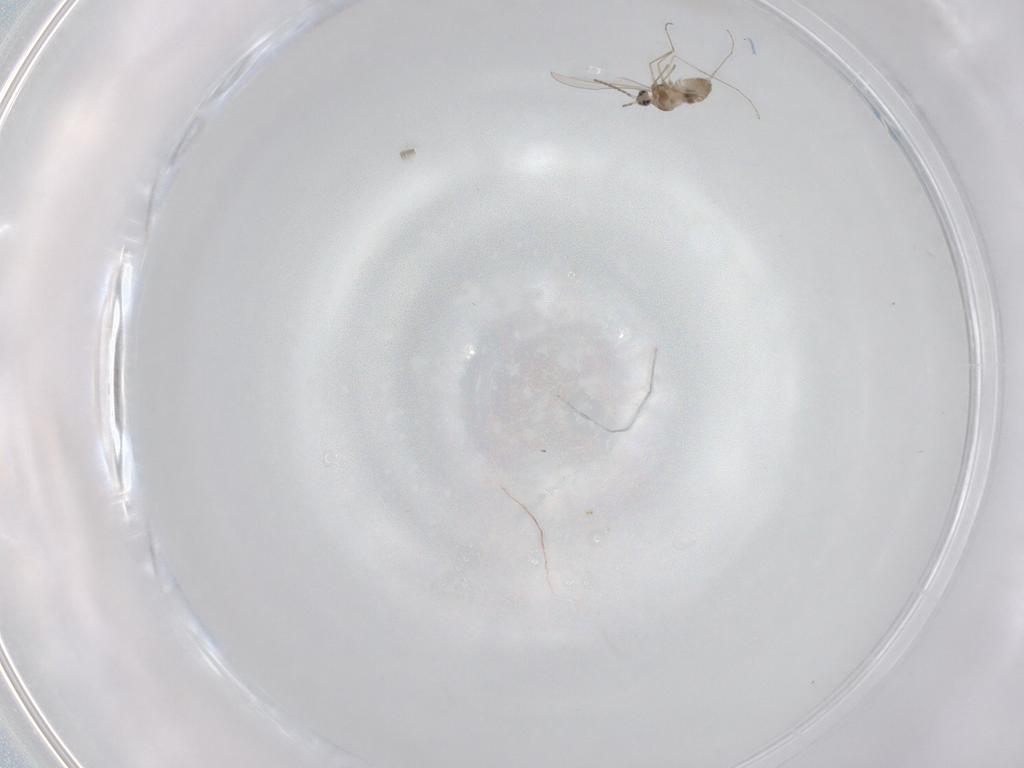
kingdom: Animalia
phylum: Arthropoda
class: Insecta
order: Diptera
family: Cecidomyiidae
